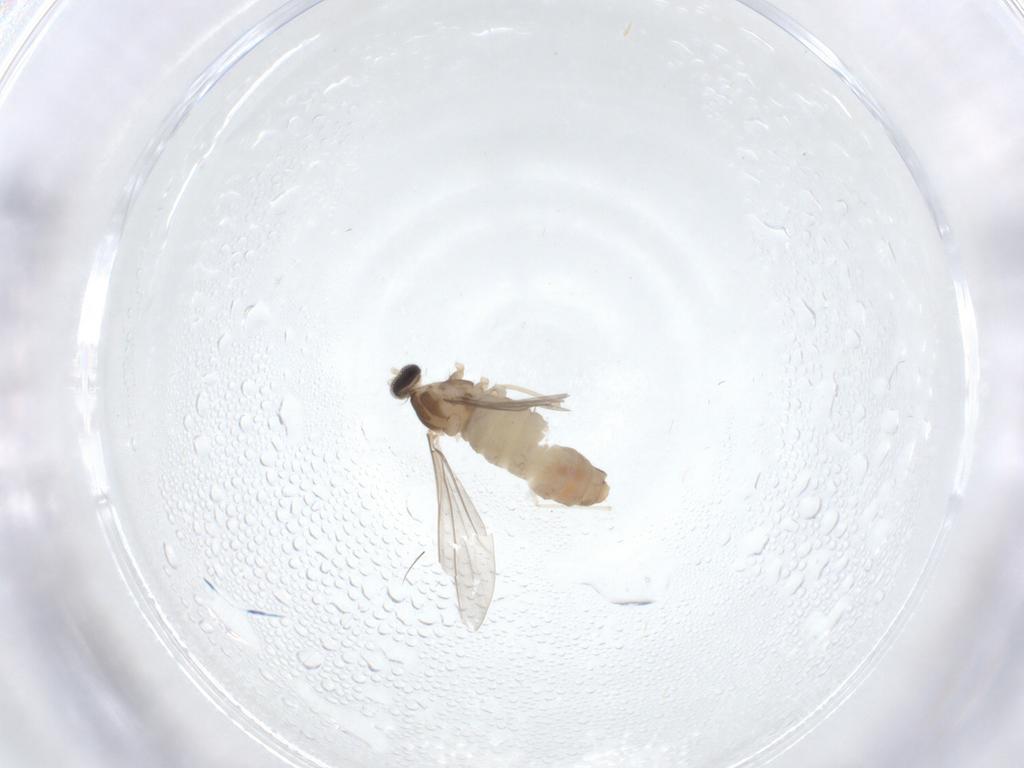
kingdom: Animalia
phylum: Arthropoda
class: Insecta
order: Diptera
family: Cecidomyiidae
